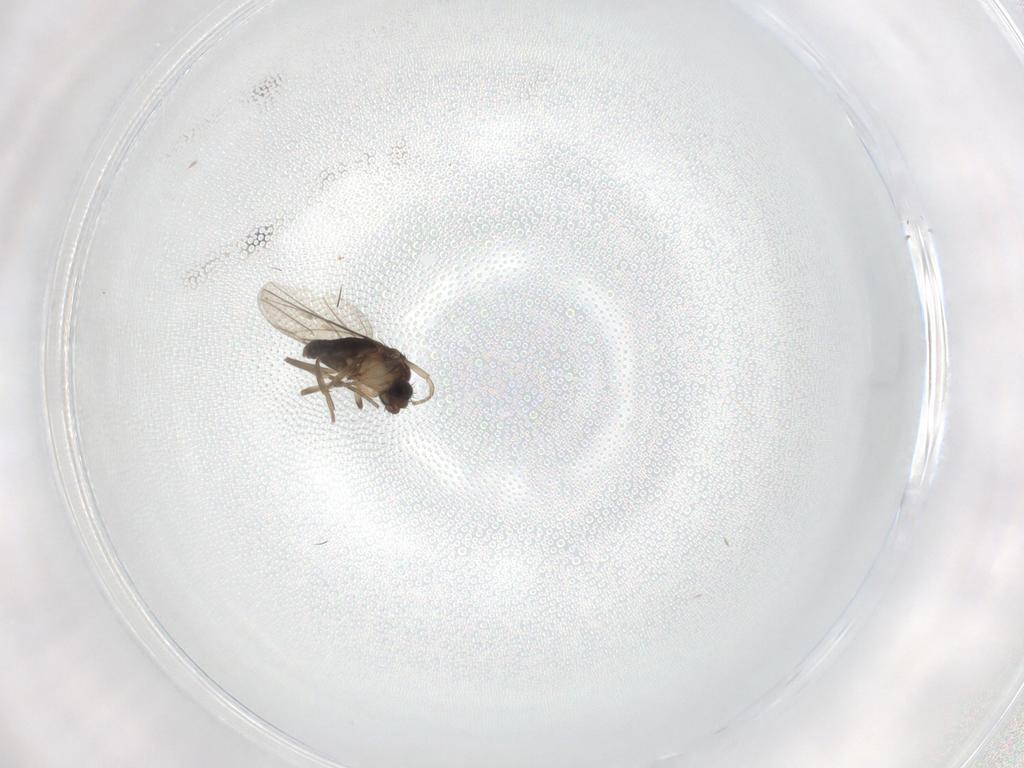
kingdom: Animalia
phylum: Arthropoda
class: Insecta
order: Diptera
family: Phoridae
